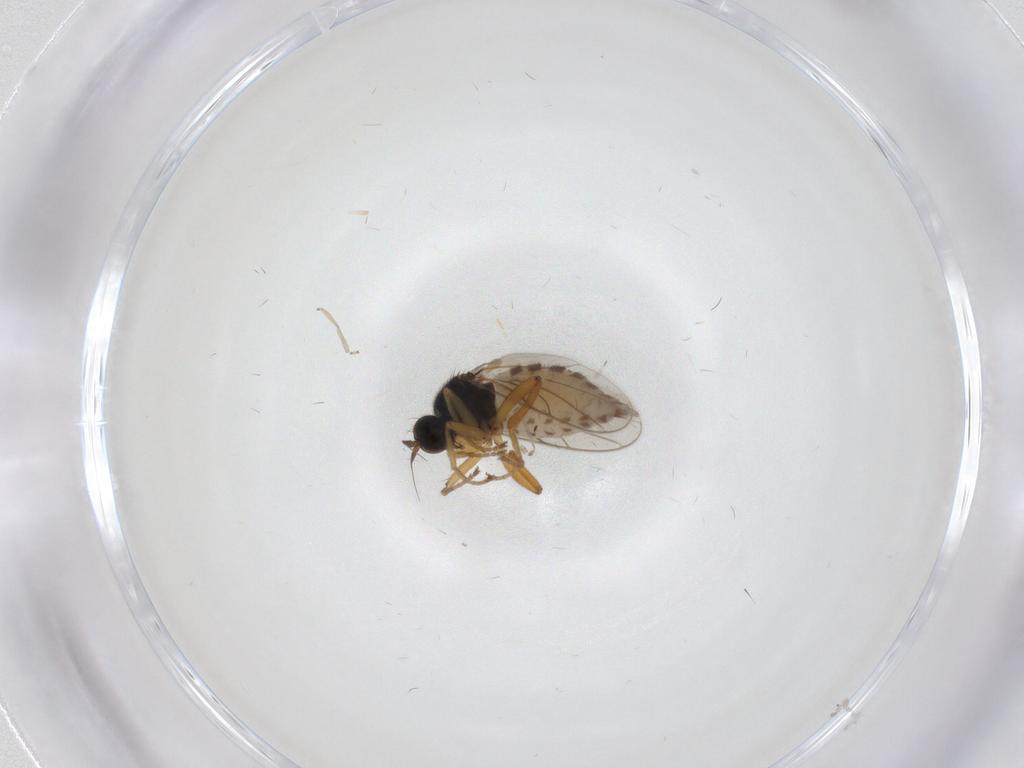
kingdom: Animalia
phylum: Arthropoda
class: Insecta
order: Diptera
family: Hybotidae
